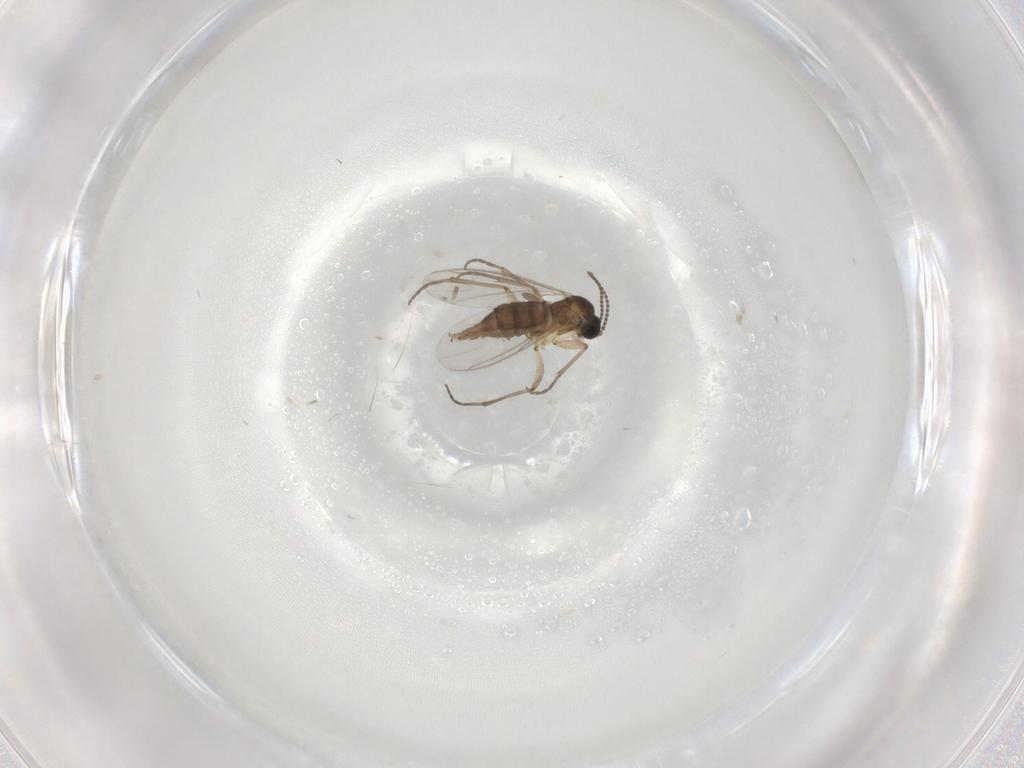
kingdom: Animalia
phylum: Arthropoda
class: Insecta
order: Diptera
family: Sciaridae
